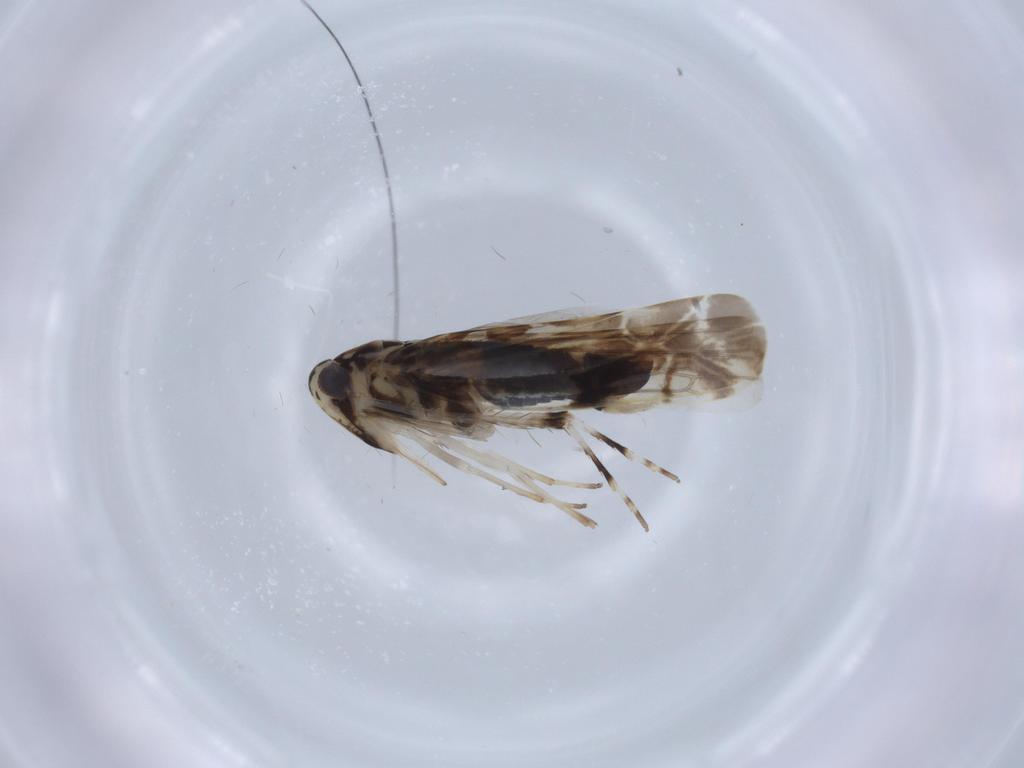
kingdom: Animalia
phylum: Arthropoda
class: Insecta
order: Hemiptera
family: Cicadellidae
